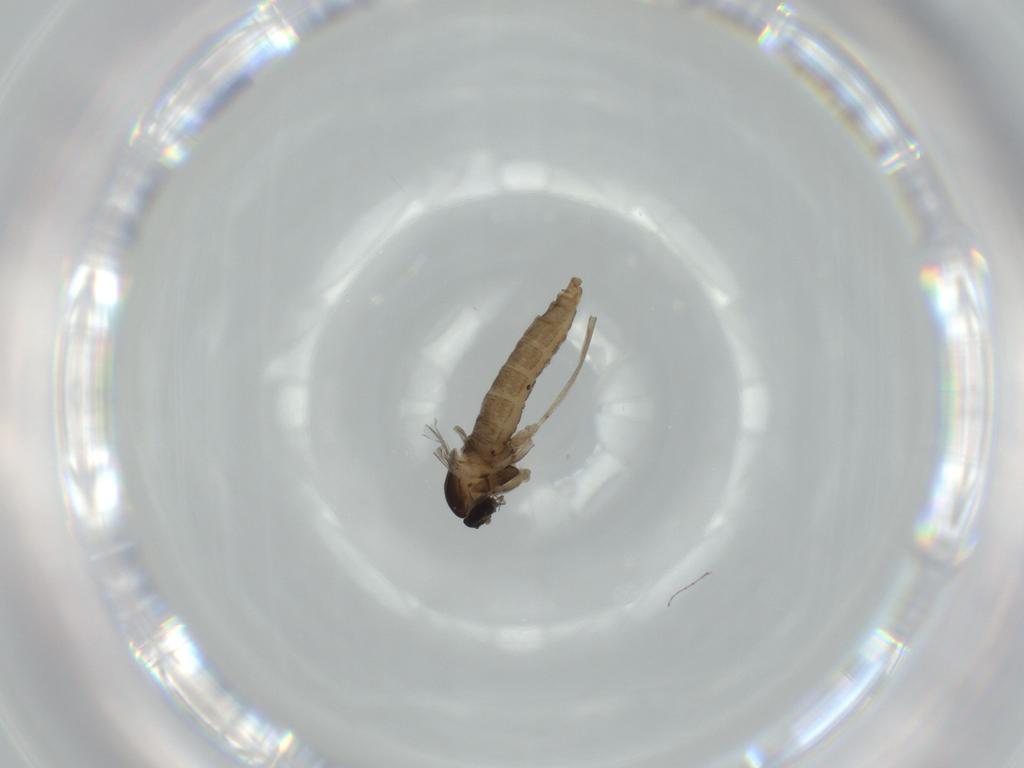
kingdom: Animalia
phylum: Arthropoda
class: Insecta
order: Diptera
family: Cecidomyiidae
